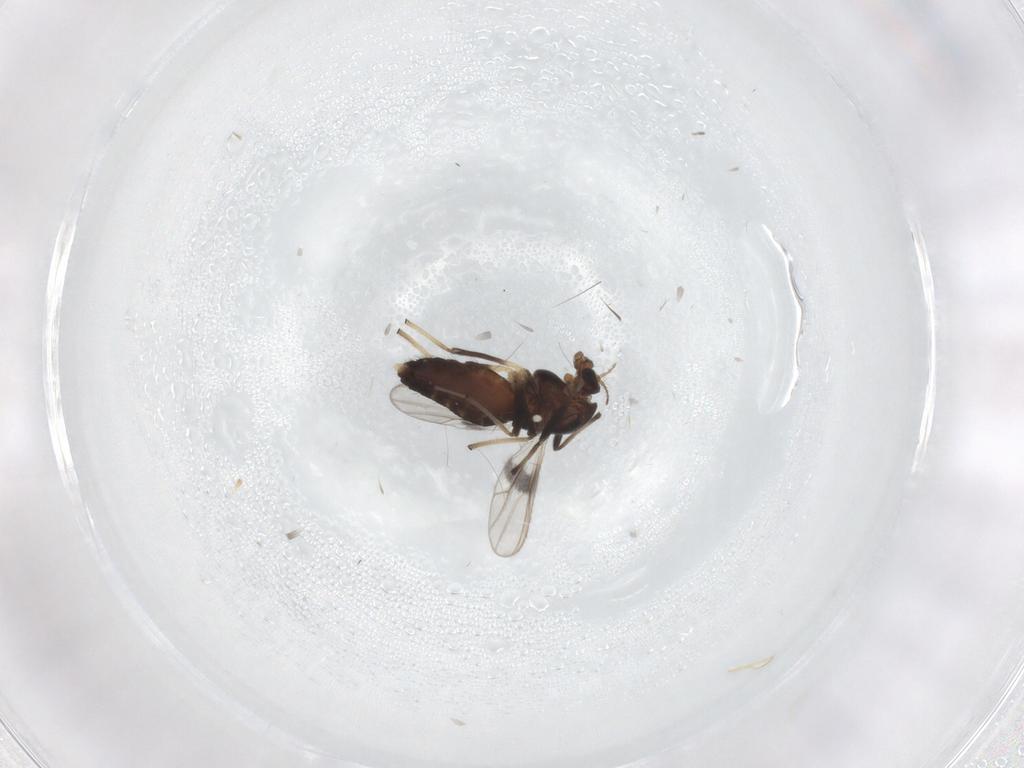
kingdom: Animalia
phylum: Arthropoda
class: Insecta
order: Diptera
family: Chironomidae
